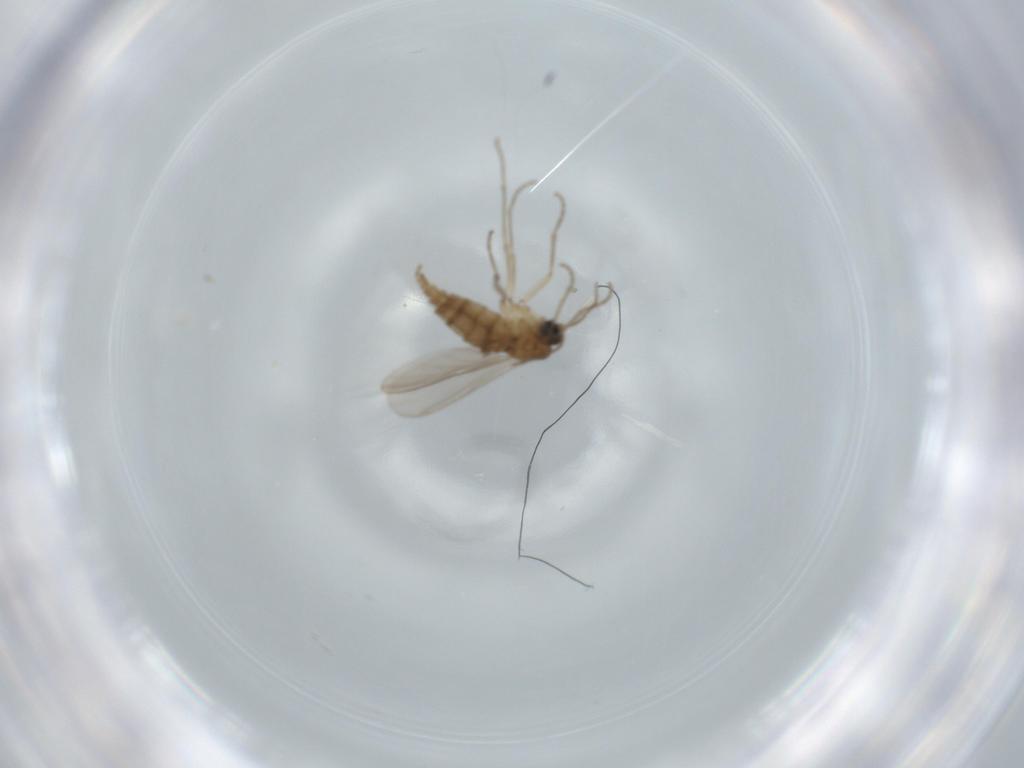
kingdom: Animalia
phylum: Arthropoda
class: Insecta
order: Diptera
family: Sciaridae
